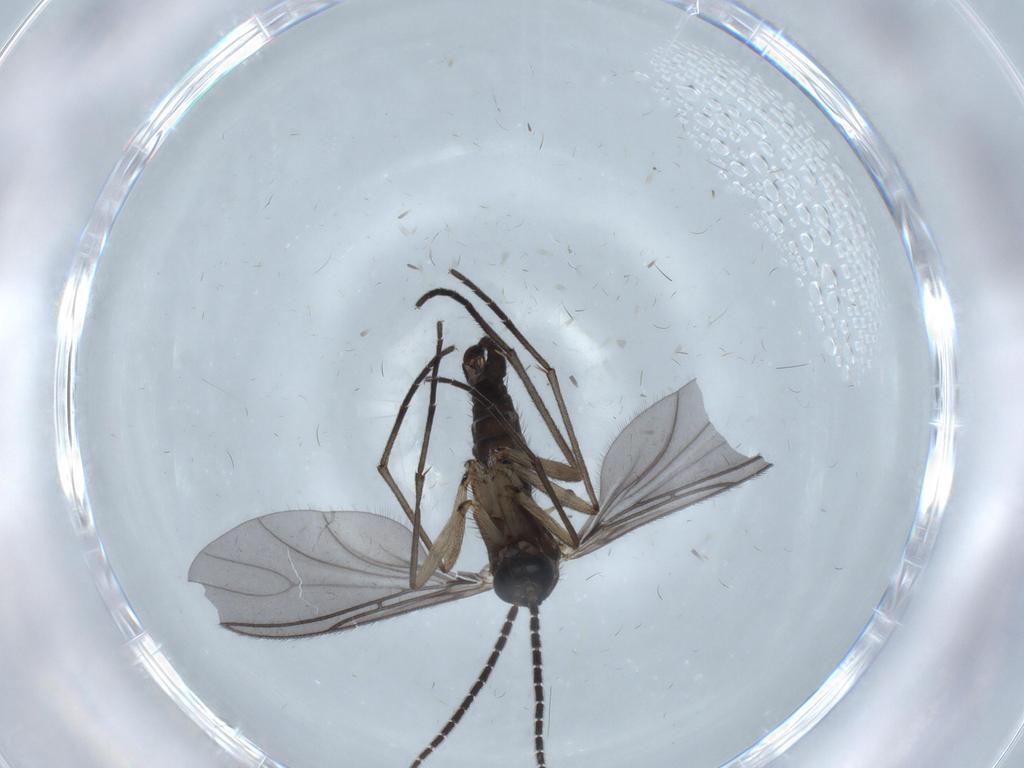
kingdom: Animalia
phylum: Arthropoda
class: Insecta
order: Diptera
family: Sciaridae
